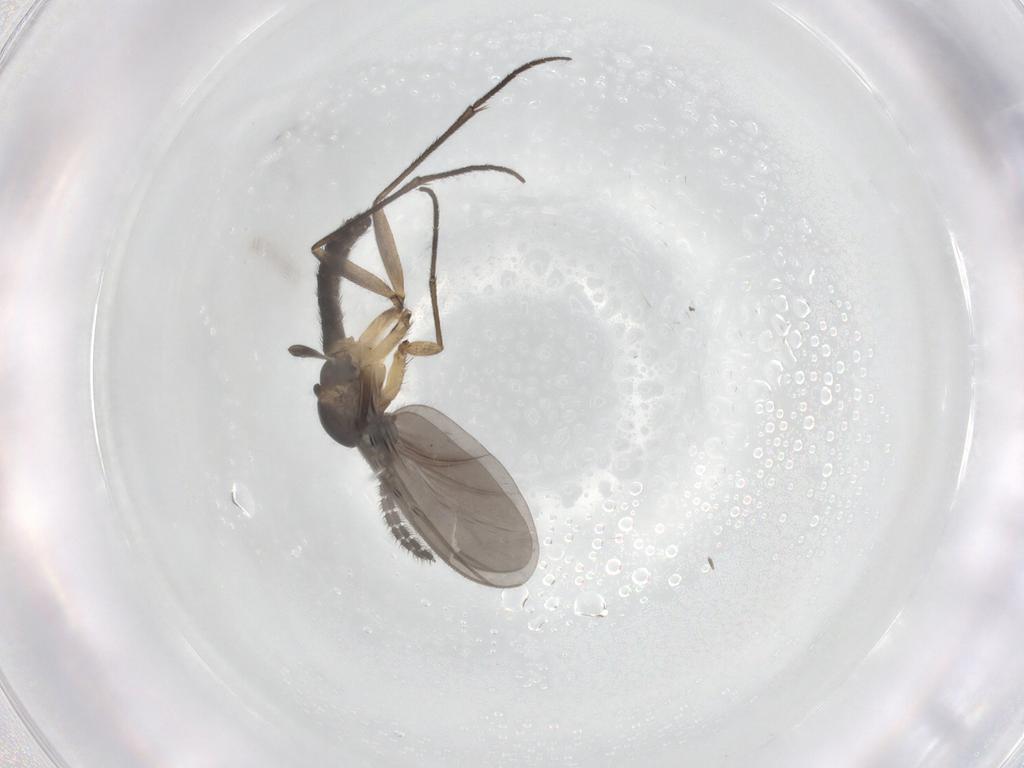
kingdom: Animalia
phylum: Arthropoda
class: Insecta
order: Diptera
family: Sciaridae
